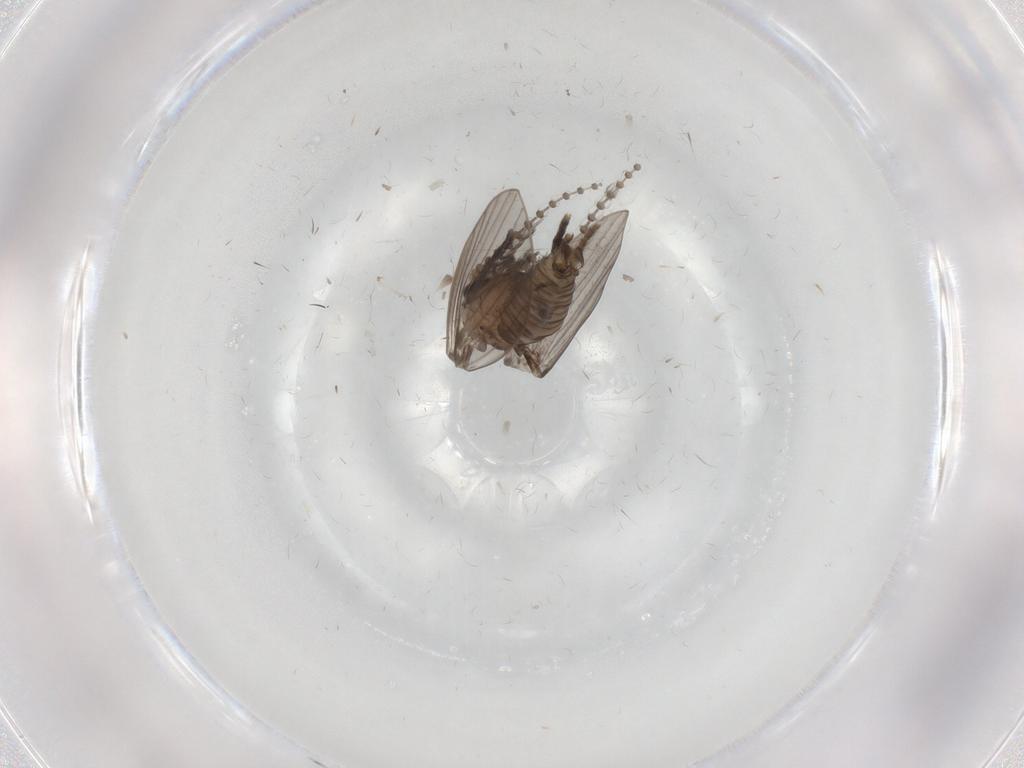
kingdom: Animalia
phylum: Arthropoda
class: Insecta
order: Diptera
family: Psychodidae
